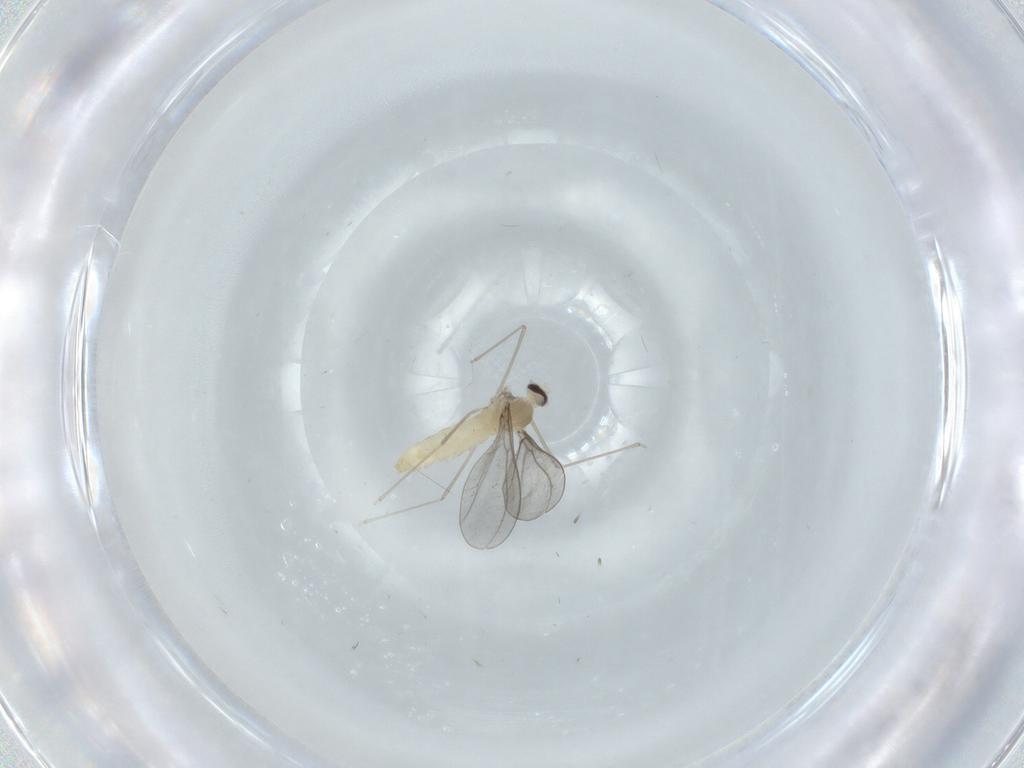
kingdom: Animalia
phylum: Arthropoda
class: Insecta
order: Diptera
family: Cecidomyiidae
